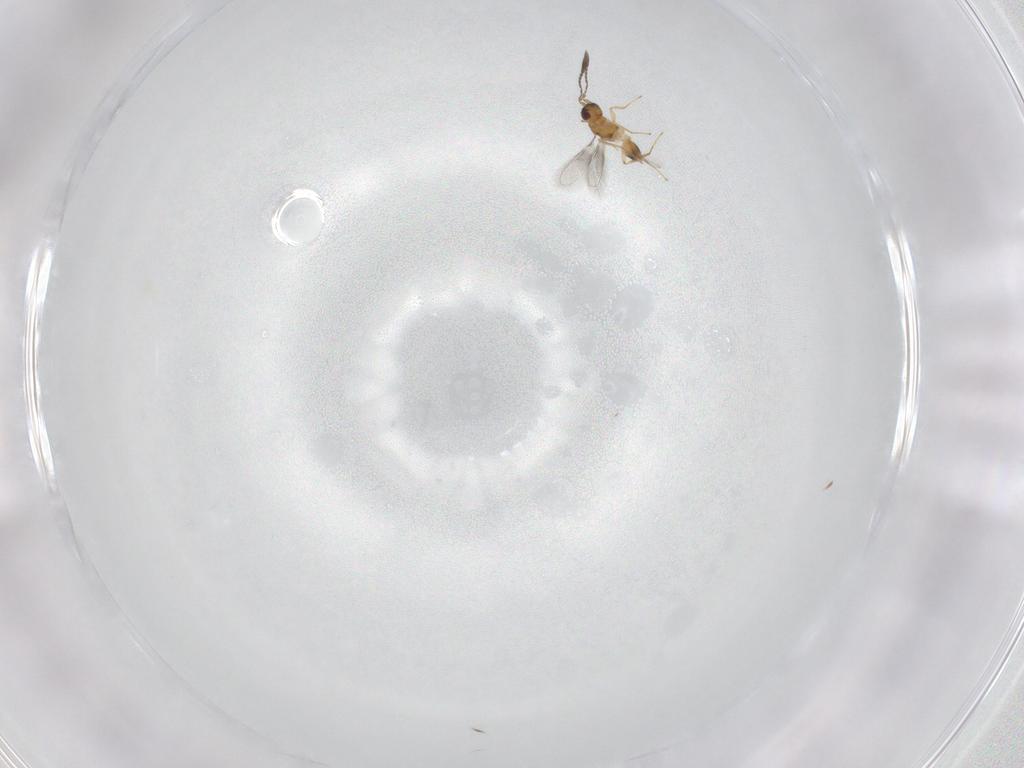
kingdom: Animalia
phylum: Arthropoda
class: Insecta
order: Hymenoptera
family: Mymaridae
